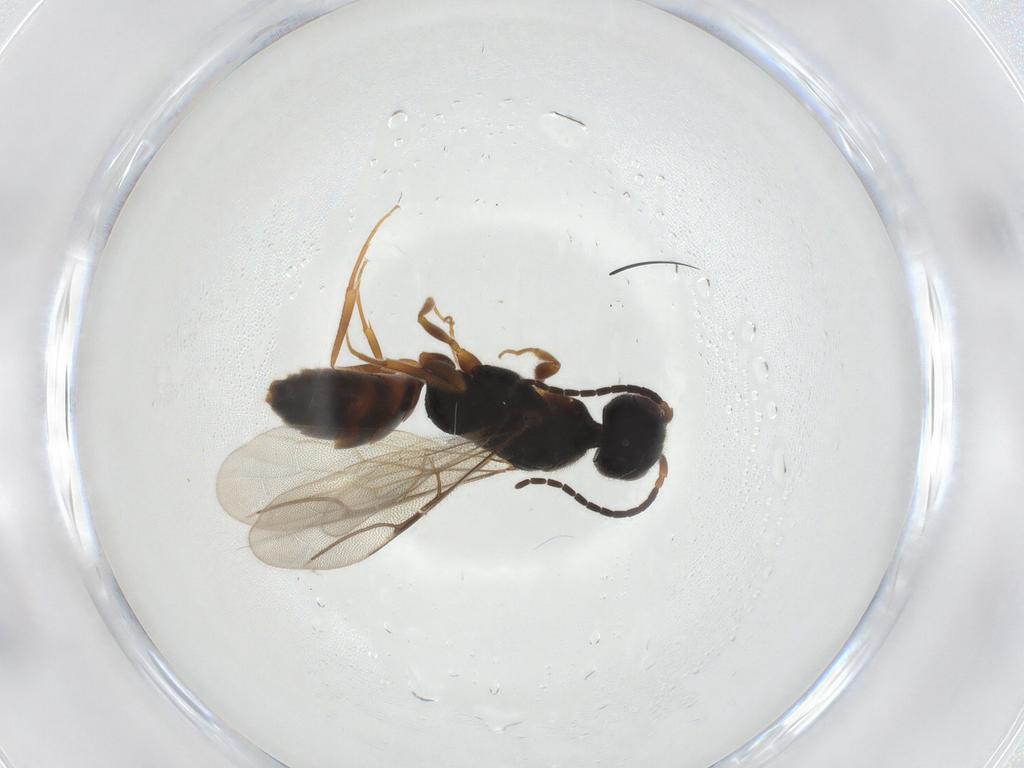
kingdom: Animalia
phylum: Arthropoda
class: Insecta
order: Hymenoptera
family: Bethylidae
